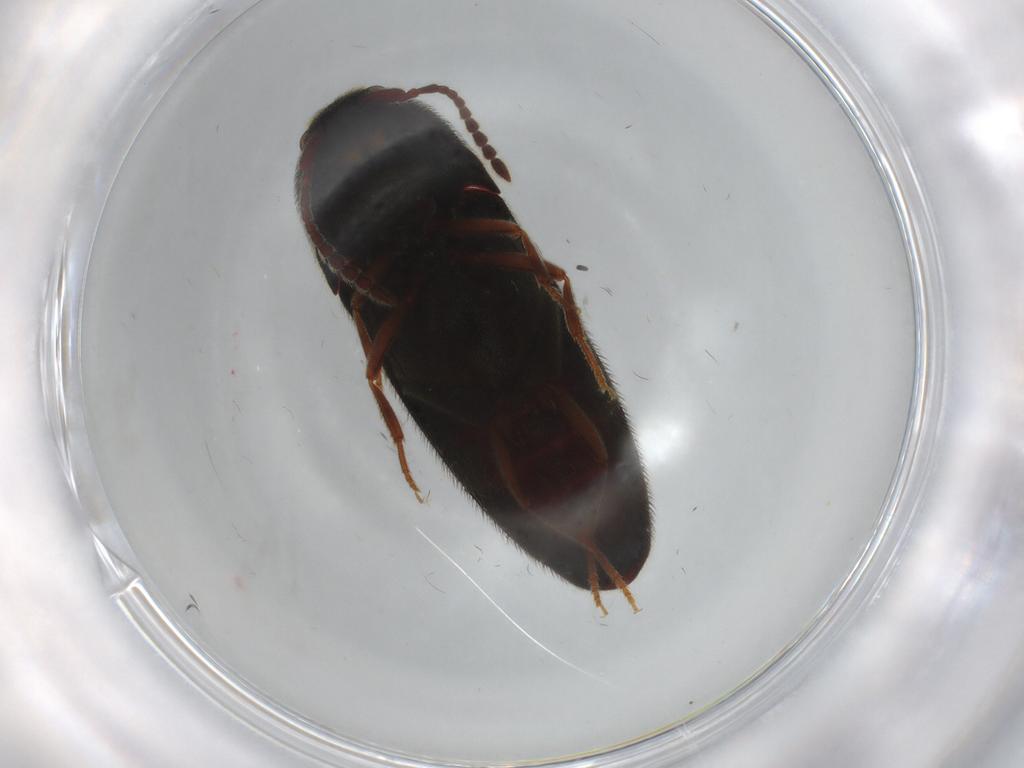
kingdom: Animalia
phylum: Arthropoda
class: Insecta
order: Coleoptera
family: Eucnemidae
